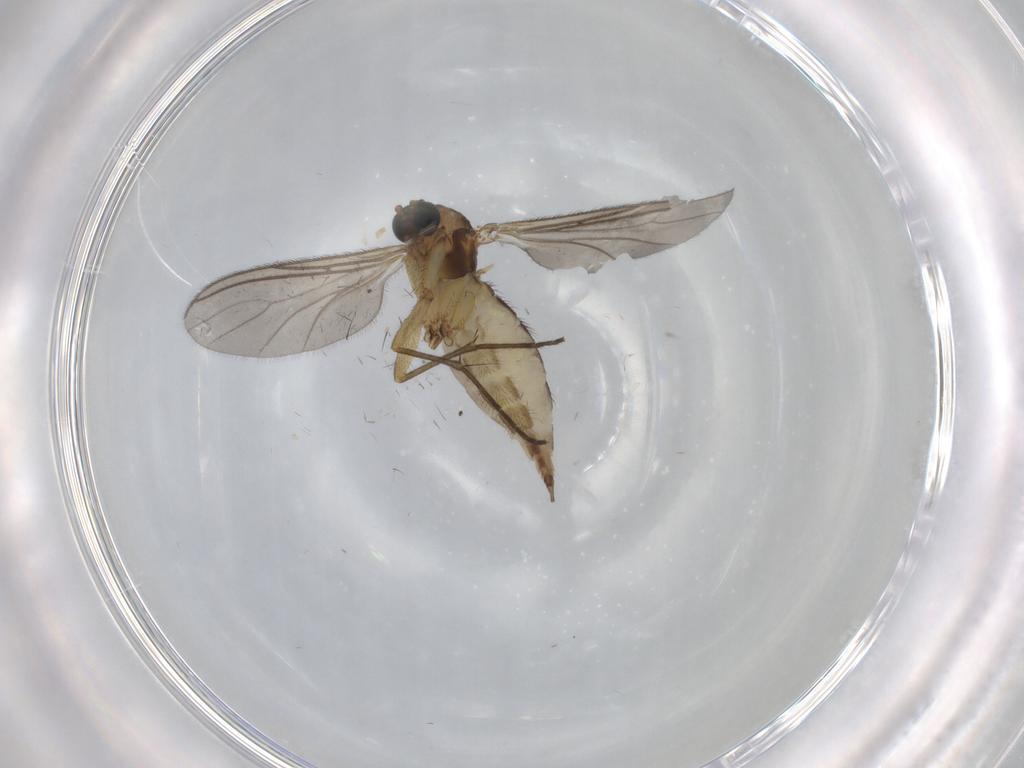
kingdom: Animalia
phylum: Arthropoda
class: Insecta
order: Diptera
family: Sciaridae
